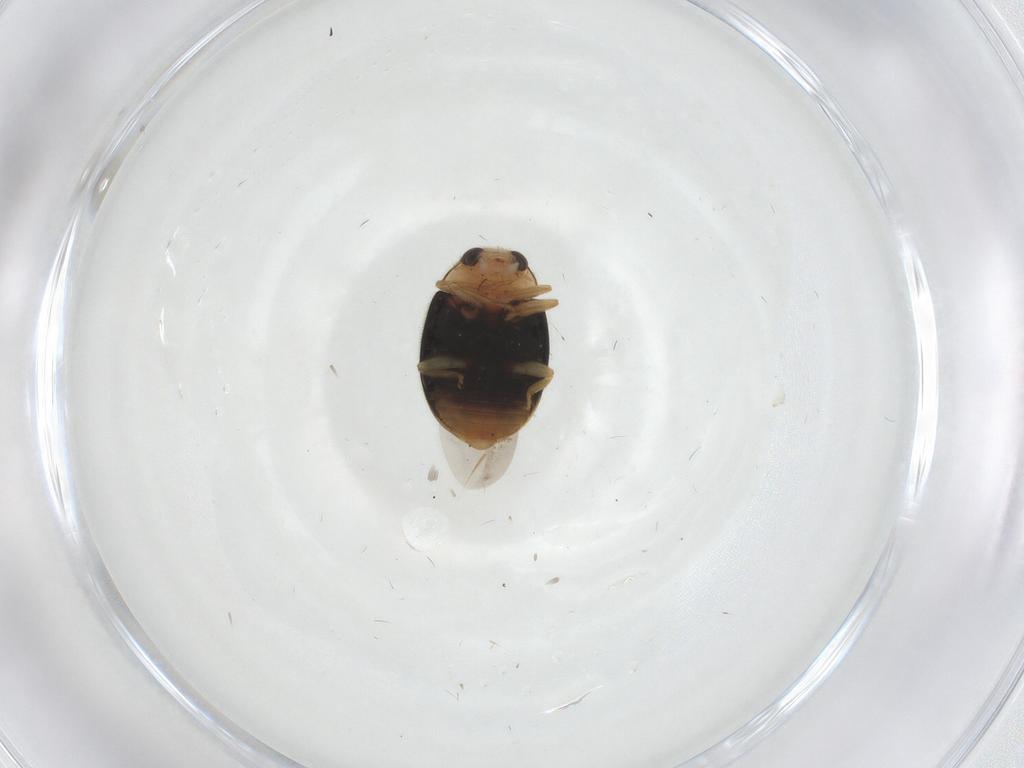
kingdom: Animalia
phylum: Arthropoda
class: Insecta
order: Coleoptera
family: Coccinellidae
